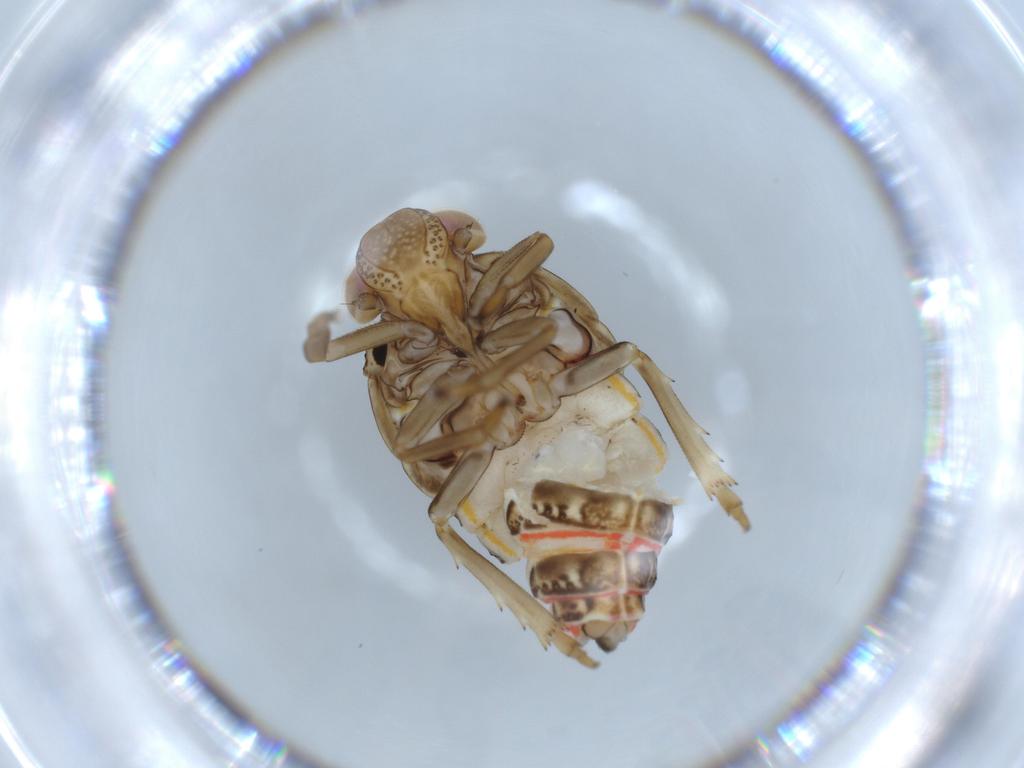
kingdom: Animalia
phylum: Arthropoda
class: Insecta
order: Hemiptera
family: Issidae
